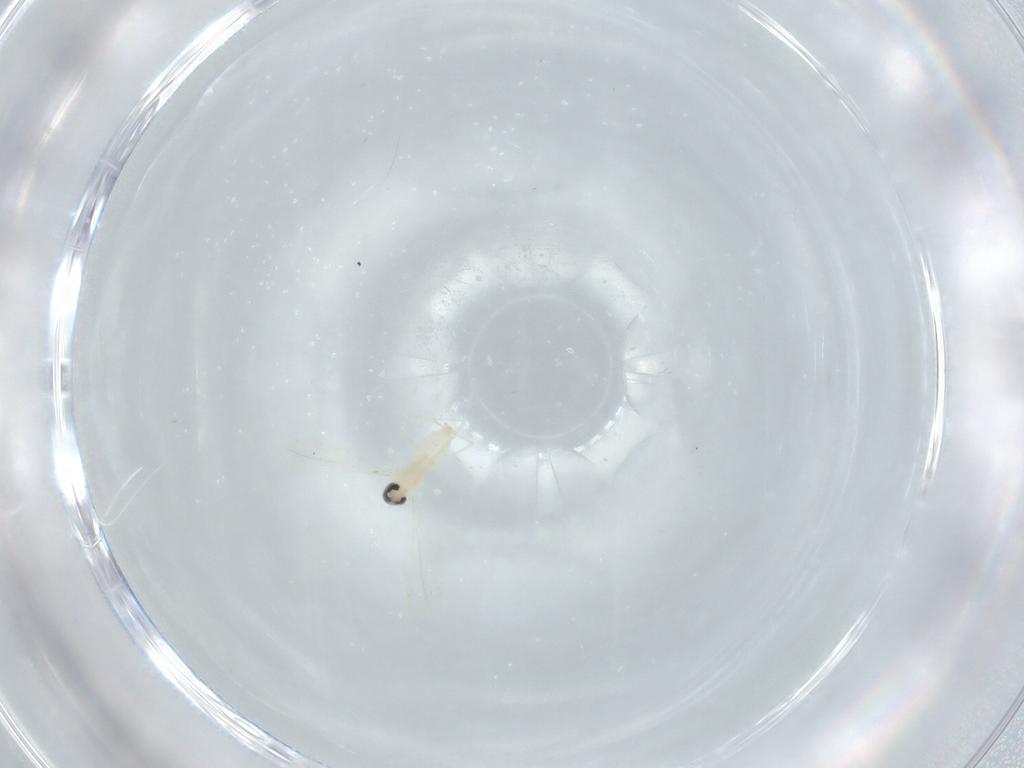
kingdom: Animalia
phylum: Arthropoda
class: Insecta
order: Diptera
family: Cecidomyiidae
